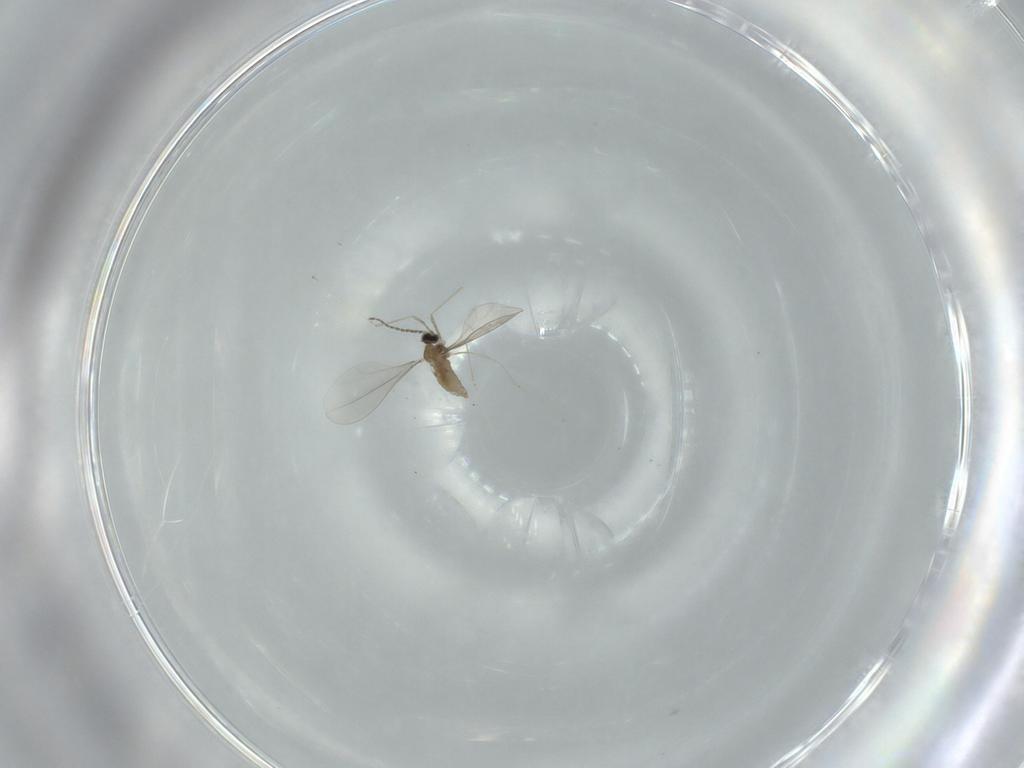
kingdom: Animalia
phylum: Arthropoda
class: Insecta
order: Diptera
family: Cecidomyiidae
